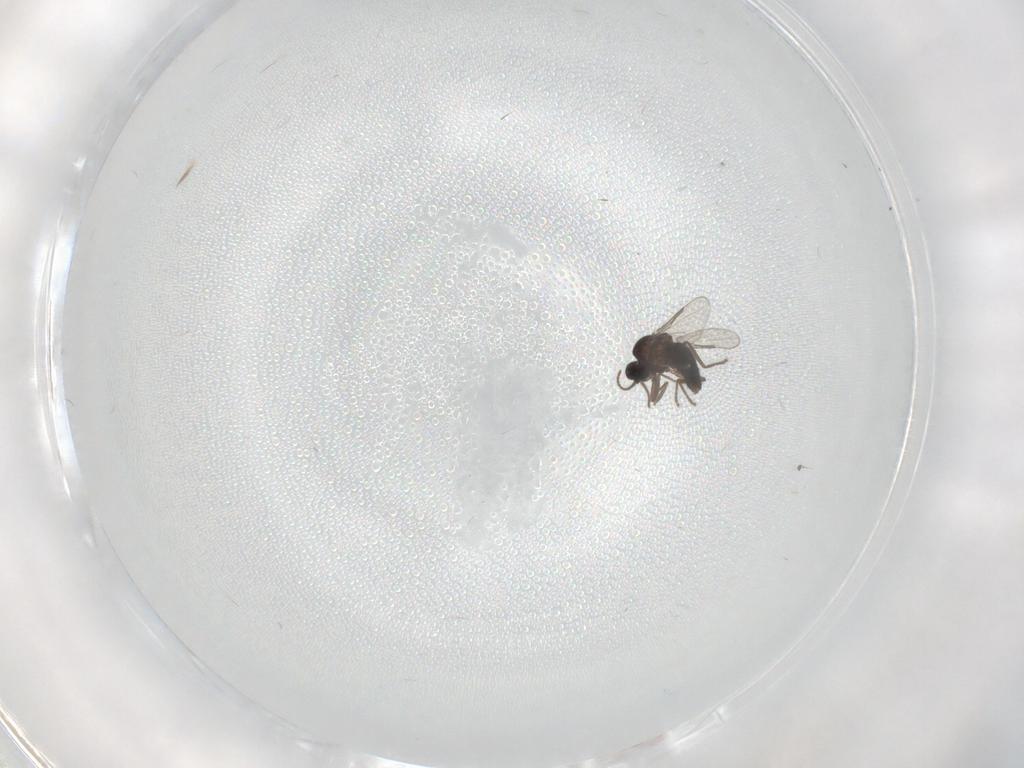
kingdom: Animalia
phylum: Arthropoda
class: Insecta
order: Diptera
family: Ceratopogonidae
